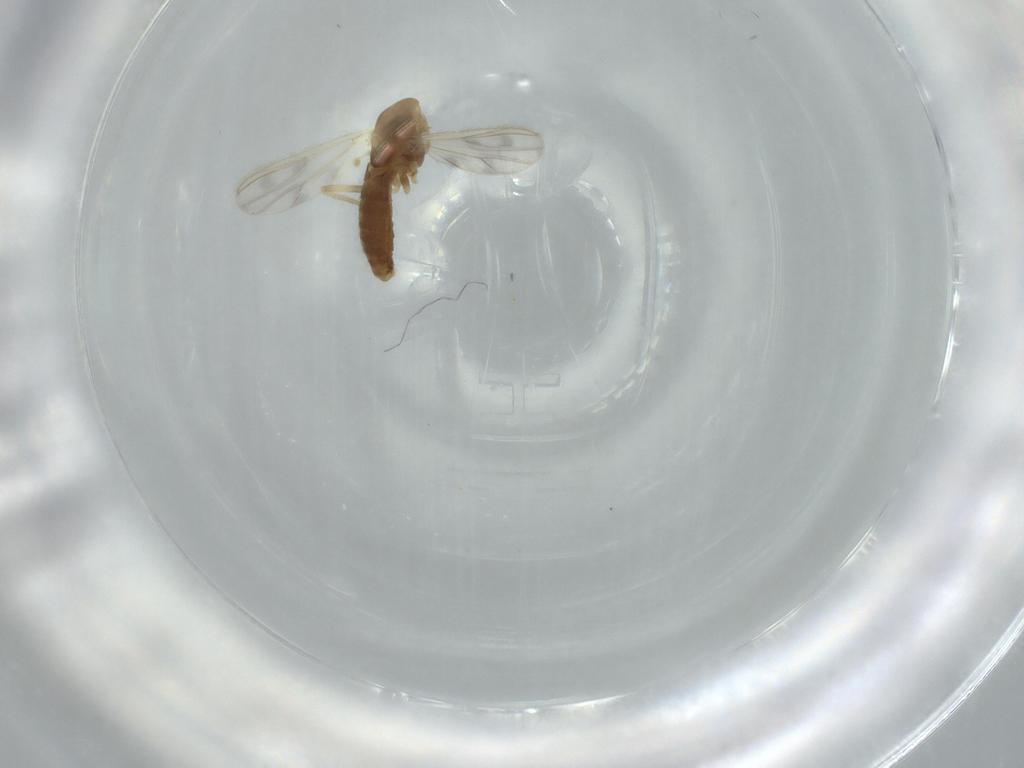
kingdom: Animalia
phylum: Arthropoda
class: Insecta
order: Diptera
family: Chironomidae
